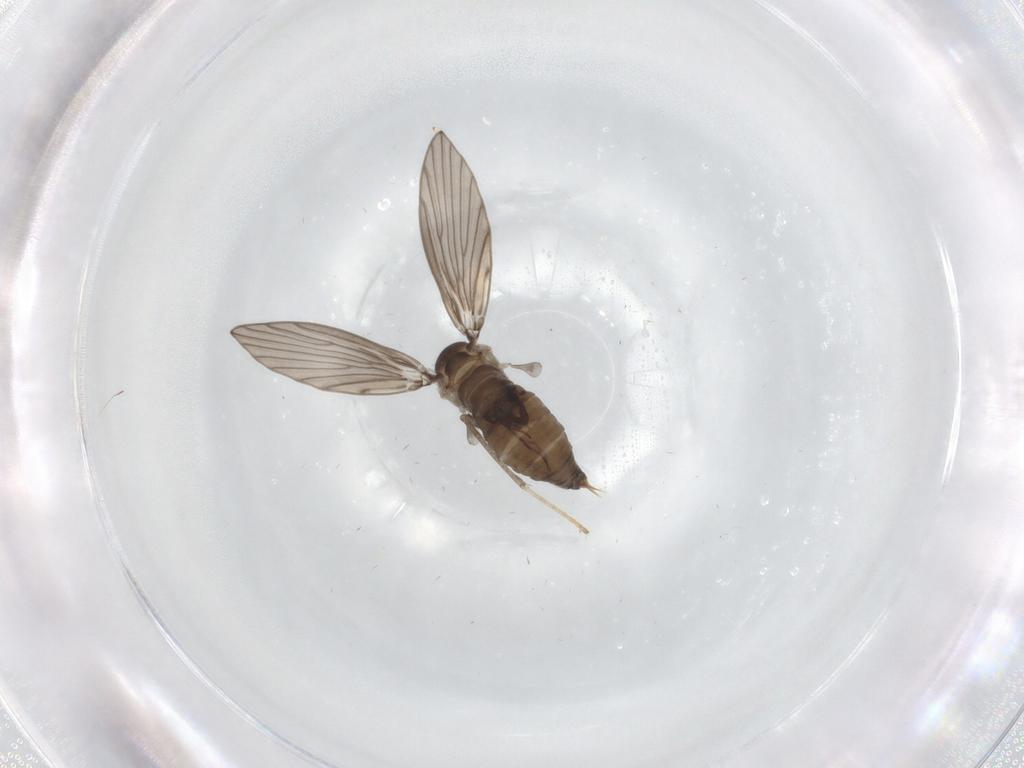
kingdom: Animalia
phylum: Arthropoda
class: Insecta
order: Diptera
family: Psychodidae
